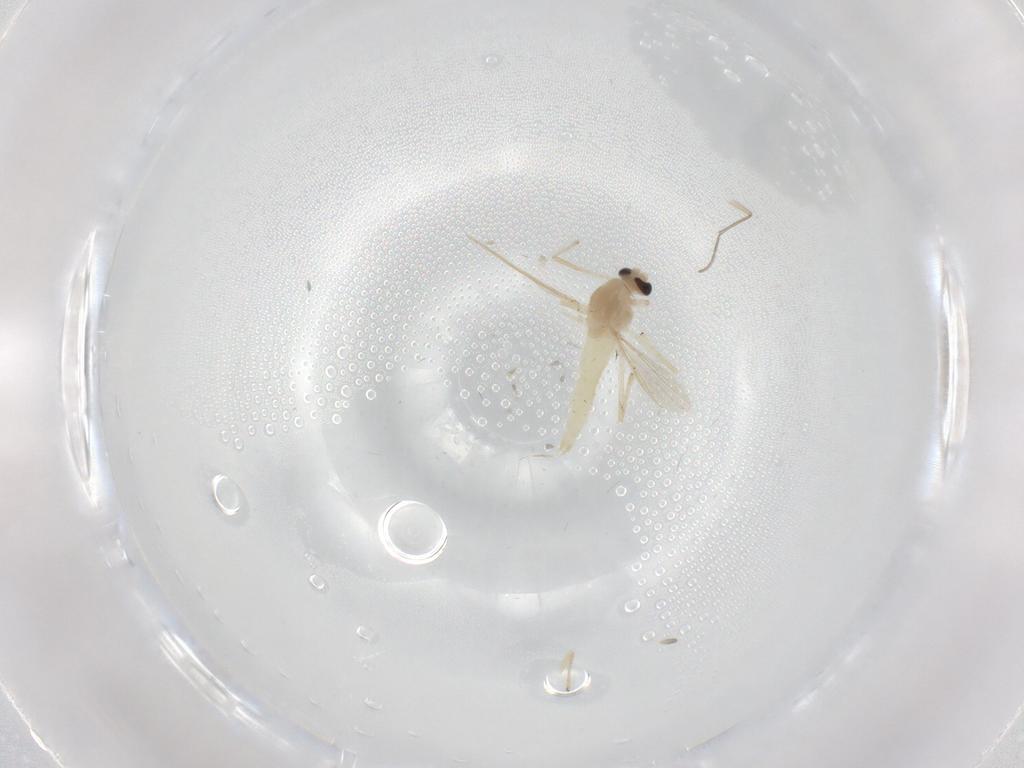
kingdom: Animalia
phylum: Arthropoda
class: Insecta
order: Diptera
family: Chironomidae
